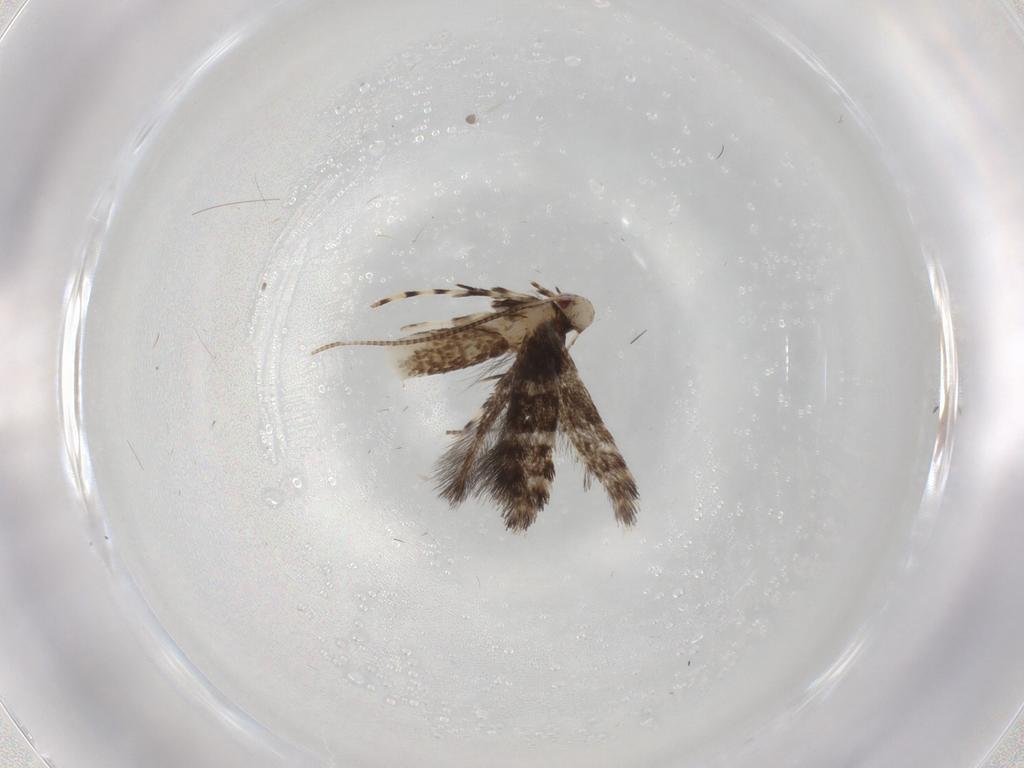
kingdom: Animalia
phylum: Arthropoda
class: Insecta
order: Lepidoptera
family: Gracillariidae
